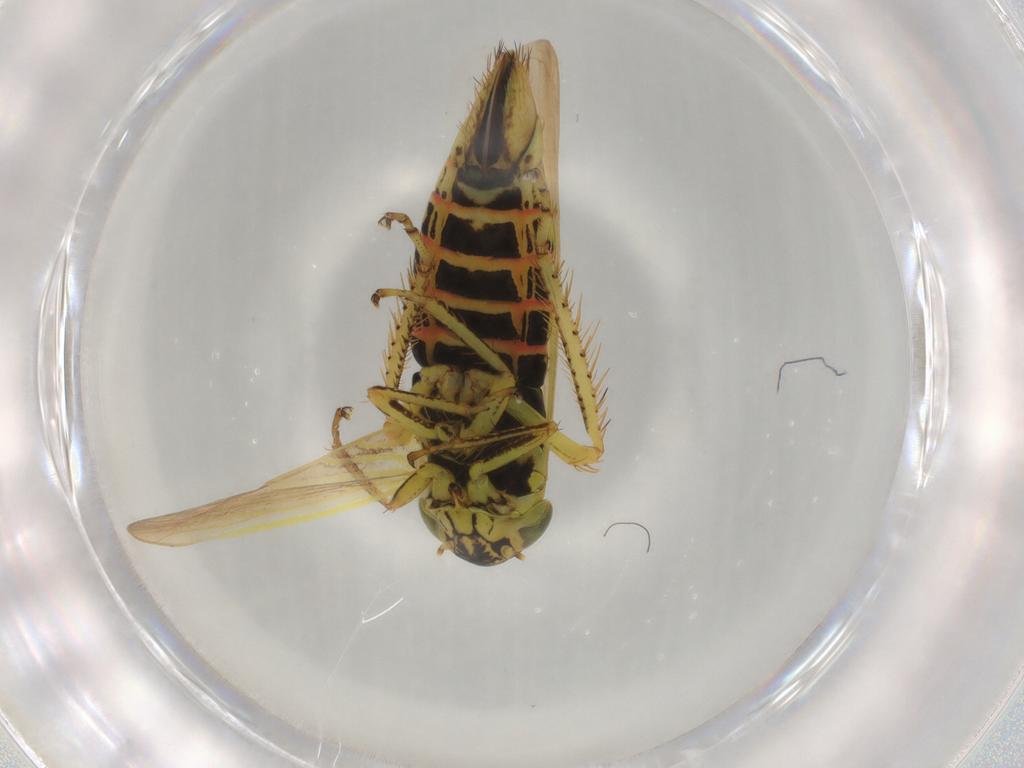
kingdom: Animalia
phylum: Arthropoda
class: Insecta
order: Hemiptera
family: Cicadellidae
